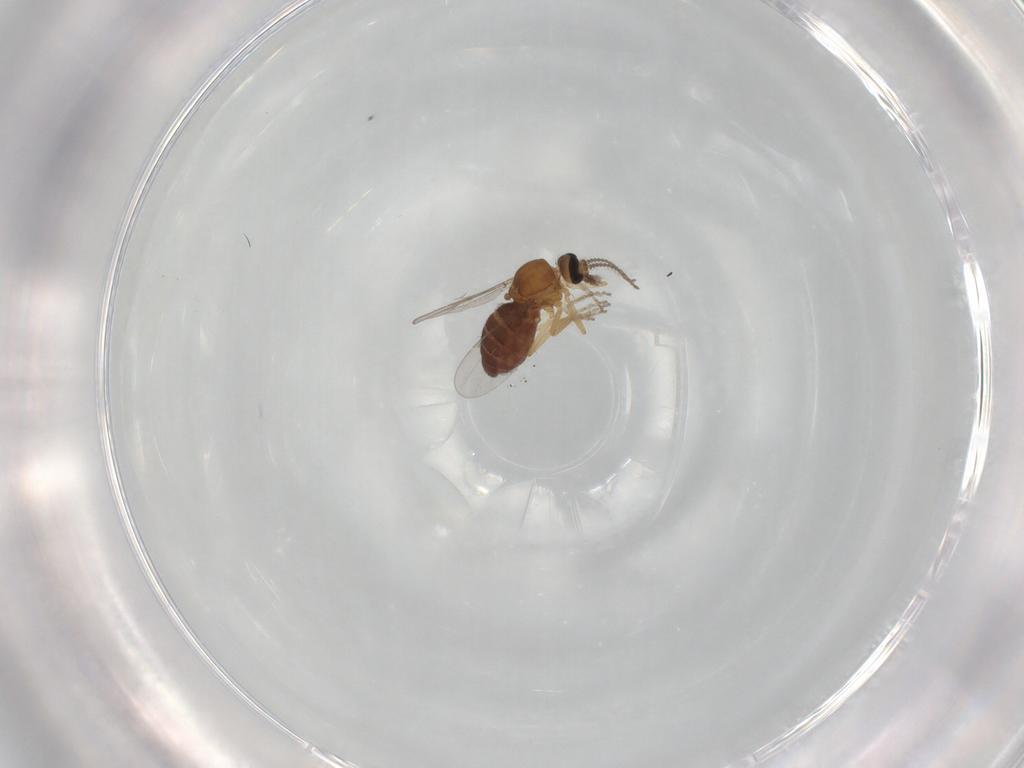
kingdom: Animalia
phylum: Arthropoda
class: Insecta
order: Diptera
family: Ceratopogonidae
